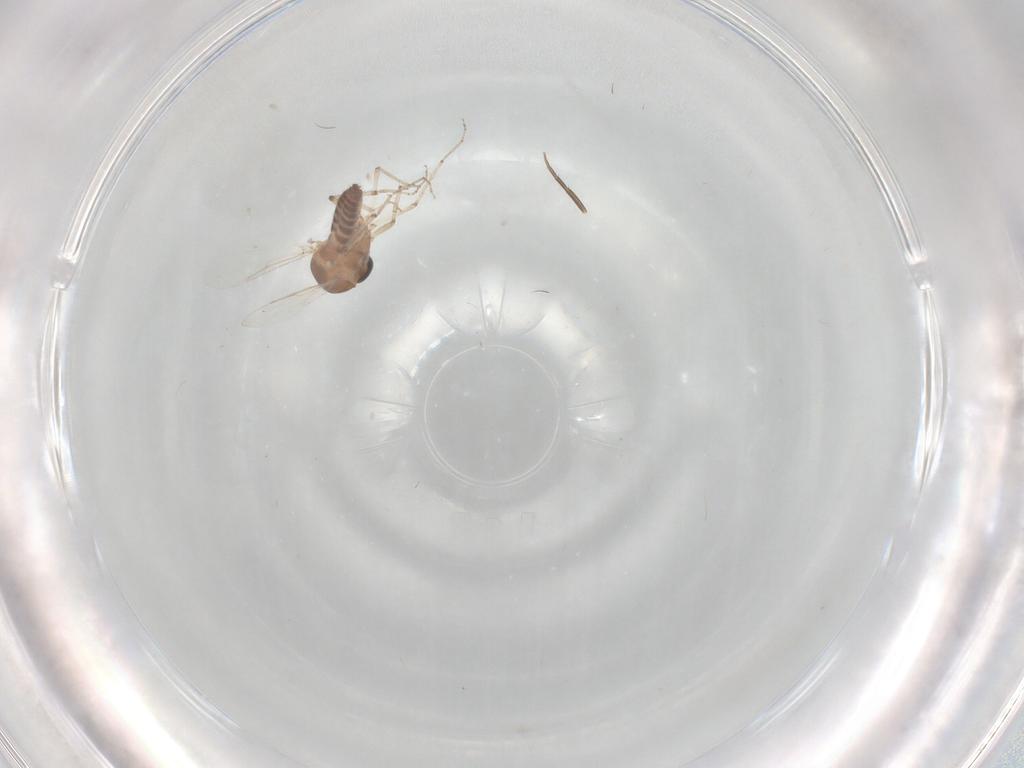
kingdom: Animalia
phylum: Arthropoda
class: Insecta
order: Diptera
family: Ceratopogonidae
